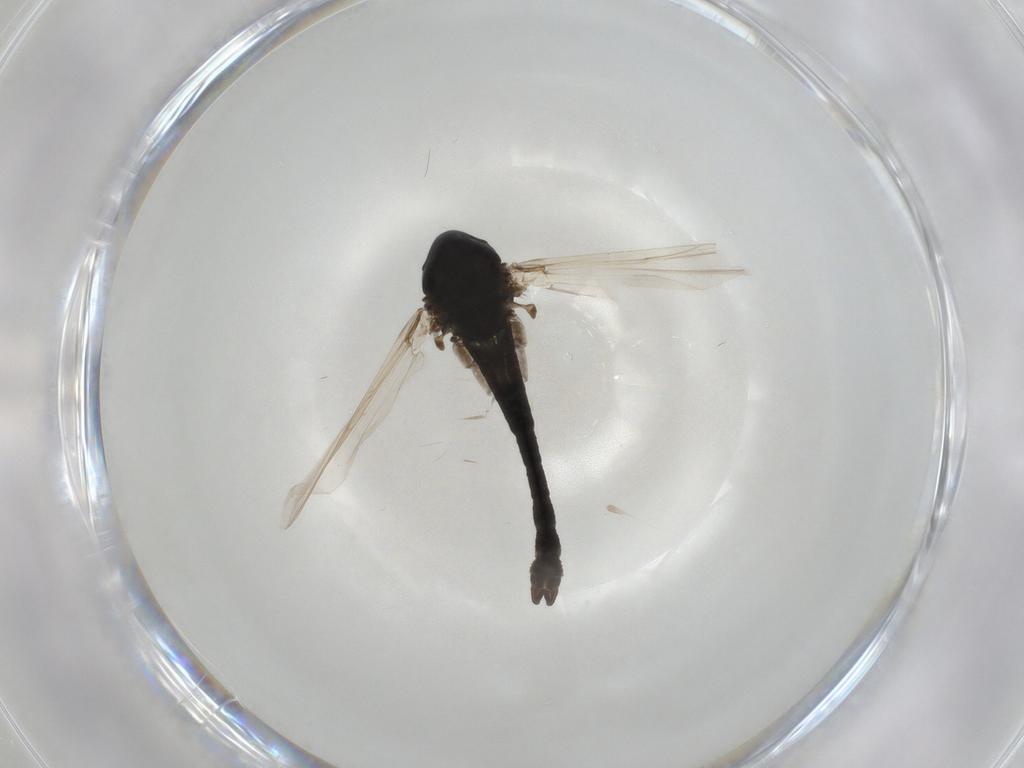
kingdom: Animalia
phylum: Arthropoda
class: Insecta
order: Diptera
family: Chironomidae
